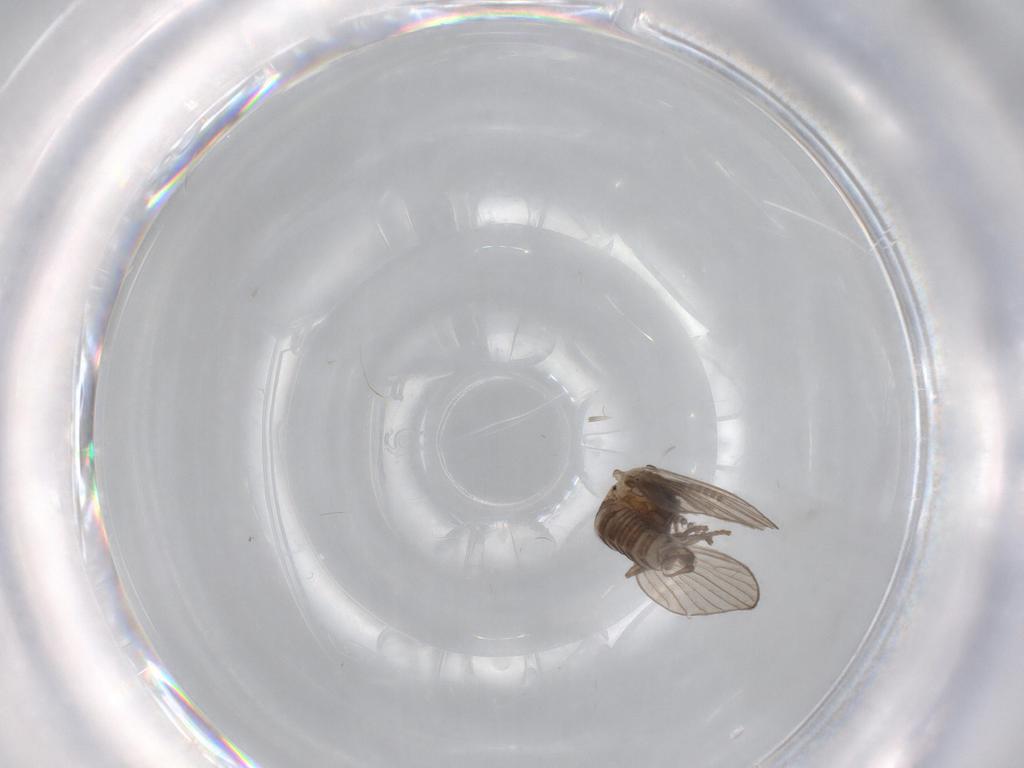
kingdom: Animalia
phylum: Arthropoda
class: Insecta
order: Diptera
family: Psychodidae
